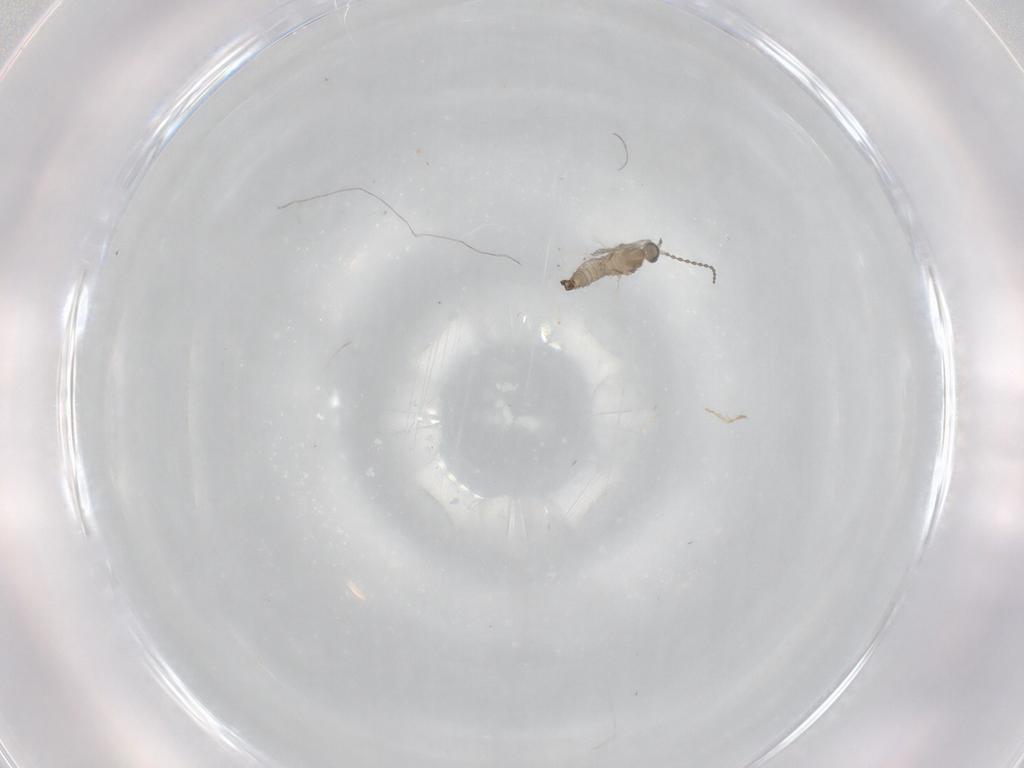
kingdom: Animalia
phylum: Arthropoda
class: Insecta
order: Diptera
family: Cecidomyiidae
